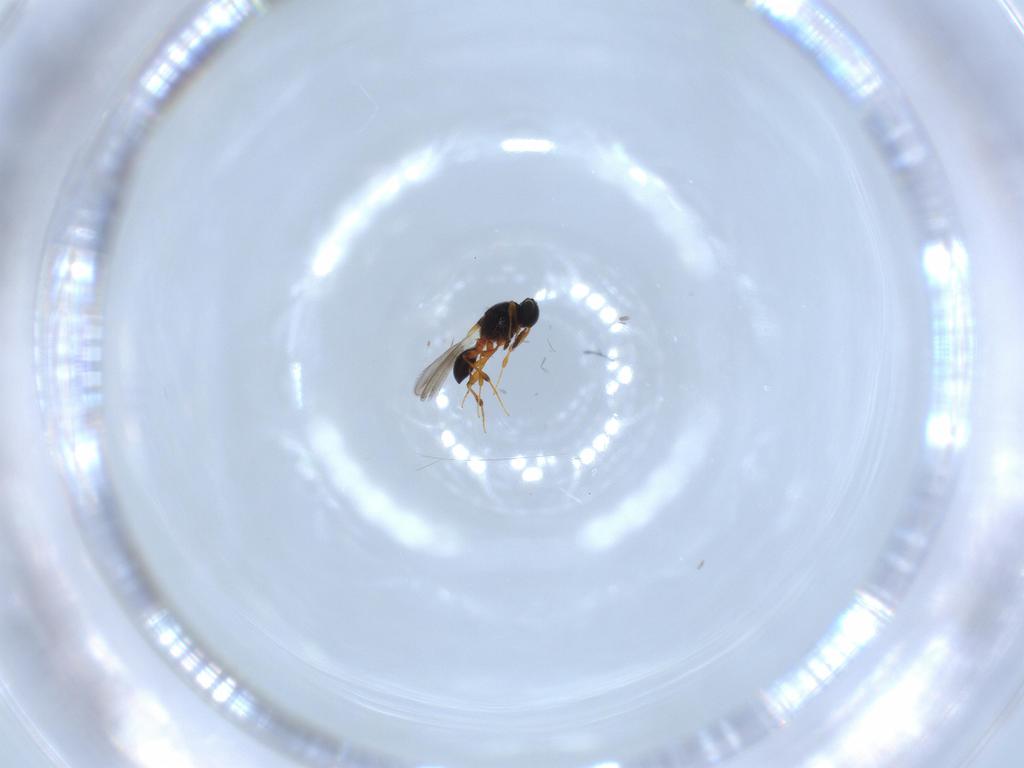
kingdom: Animalia
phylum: Arthropoda
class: Insecta
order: Hymenoptera
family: Platygastridae
